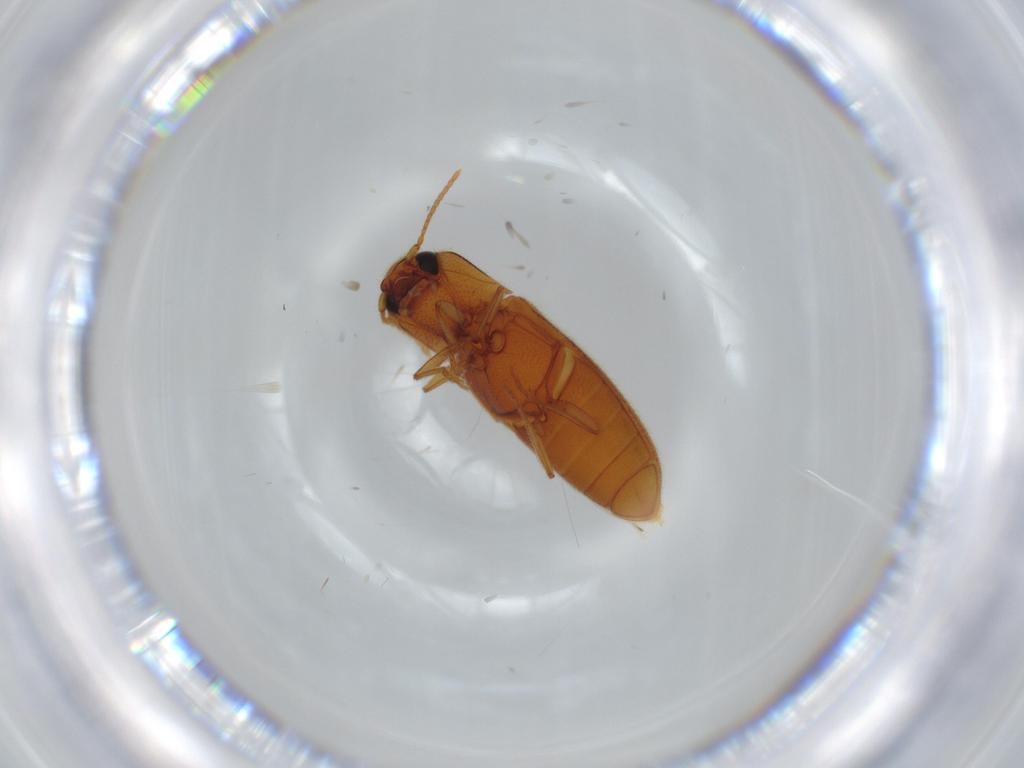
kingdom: Animalia
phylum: Arthropoda
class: Insecta
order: Coleoptera
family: Elateridae
